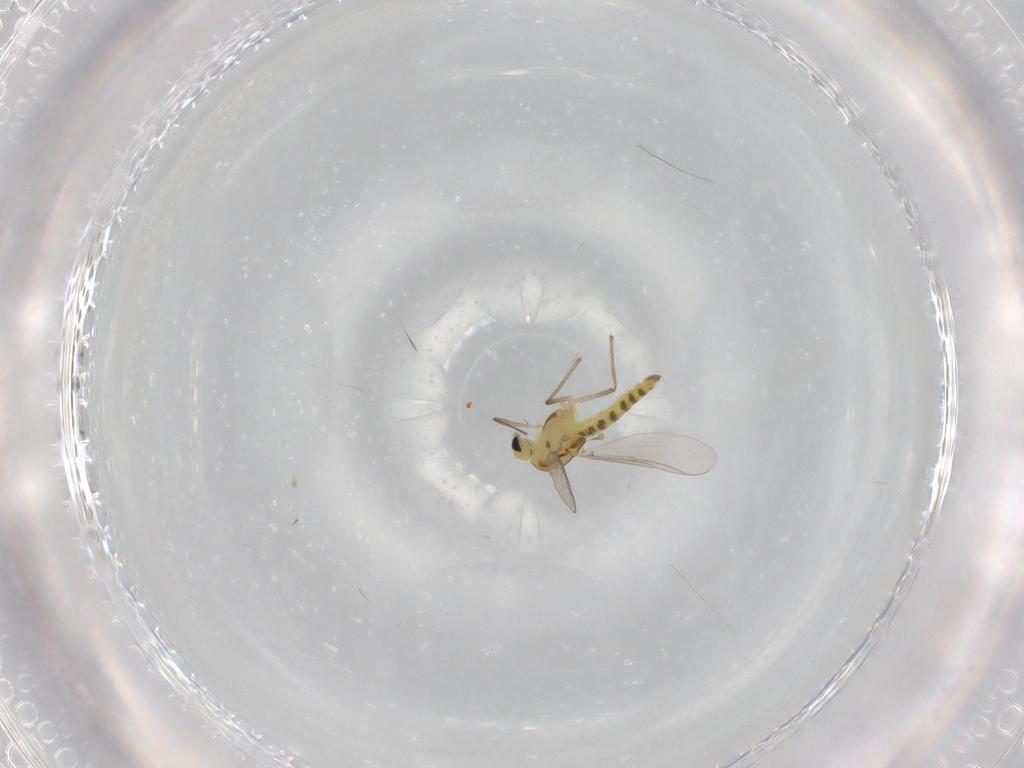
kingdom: Animalia
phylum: Arthropoda
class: Insecta
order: Diptera
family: Chironomidae
